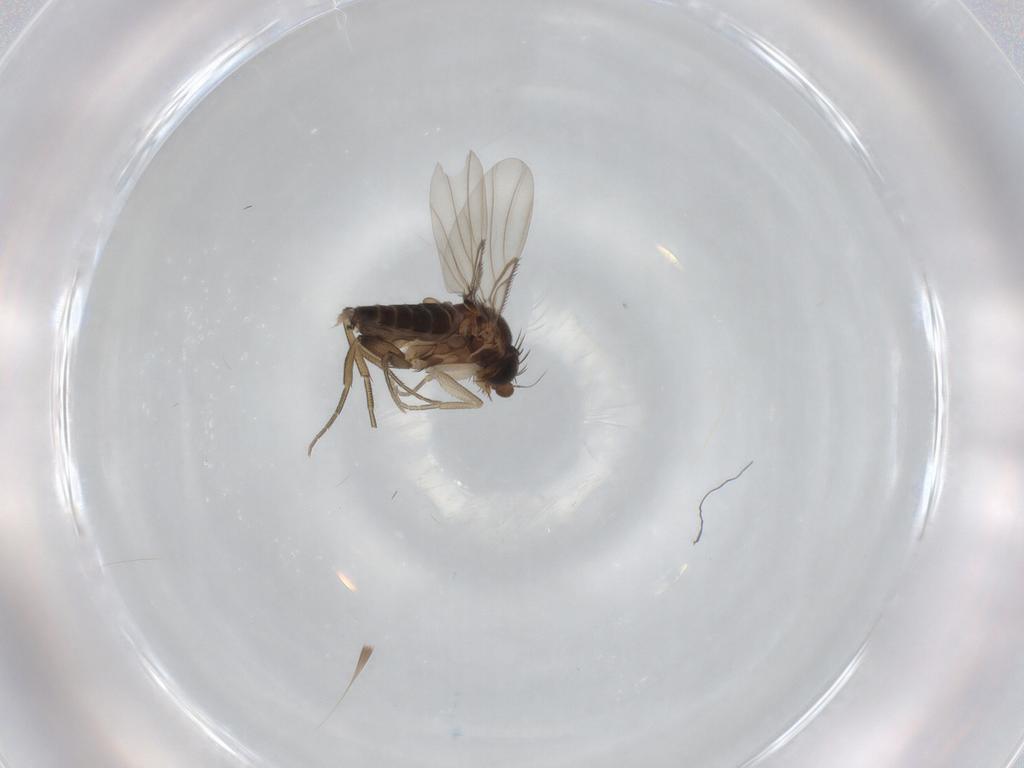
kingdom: Animalia
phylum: Arthropoda
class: Insecta
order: Diptera
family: Phoridae
